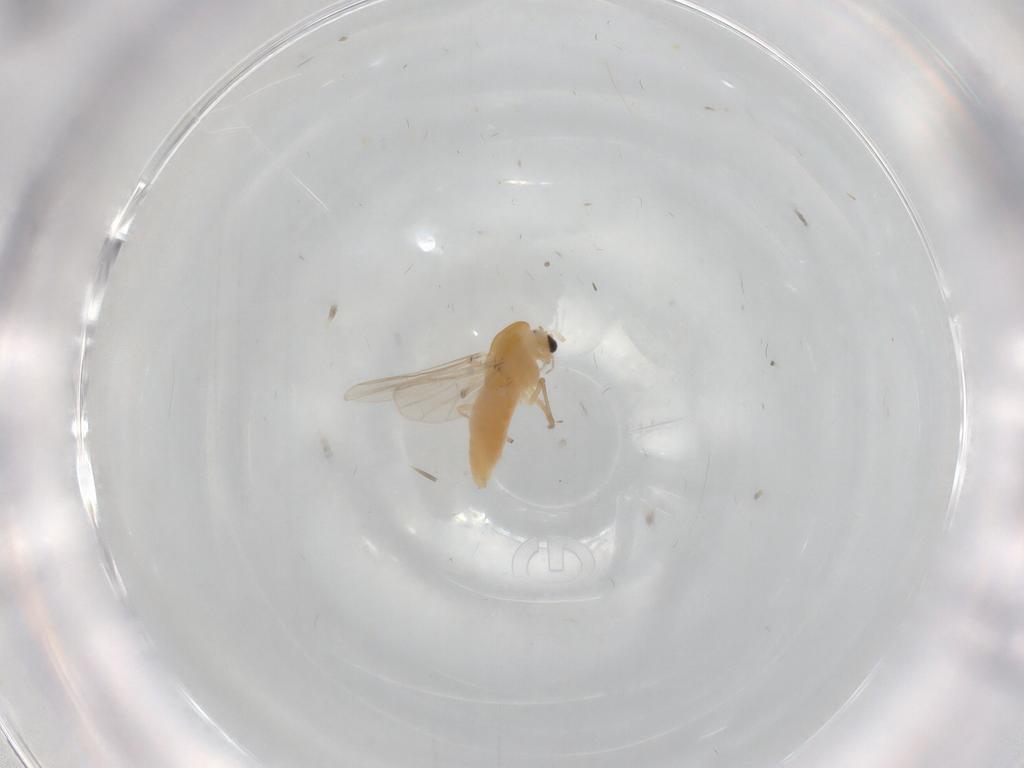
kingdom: Animalia
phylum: Arthropoda
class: Insecta
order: Diptera
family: Chironomidae
